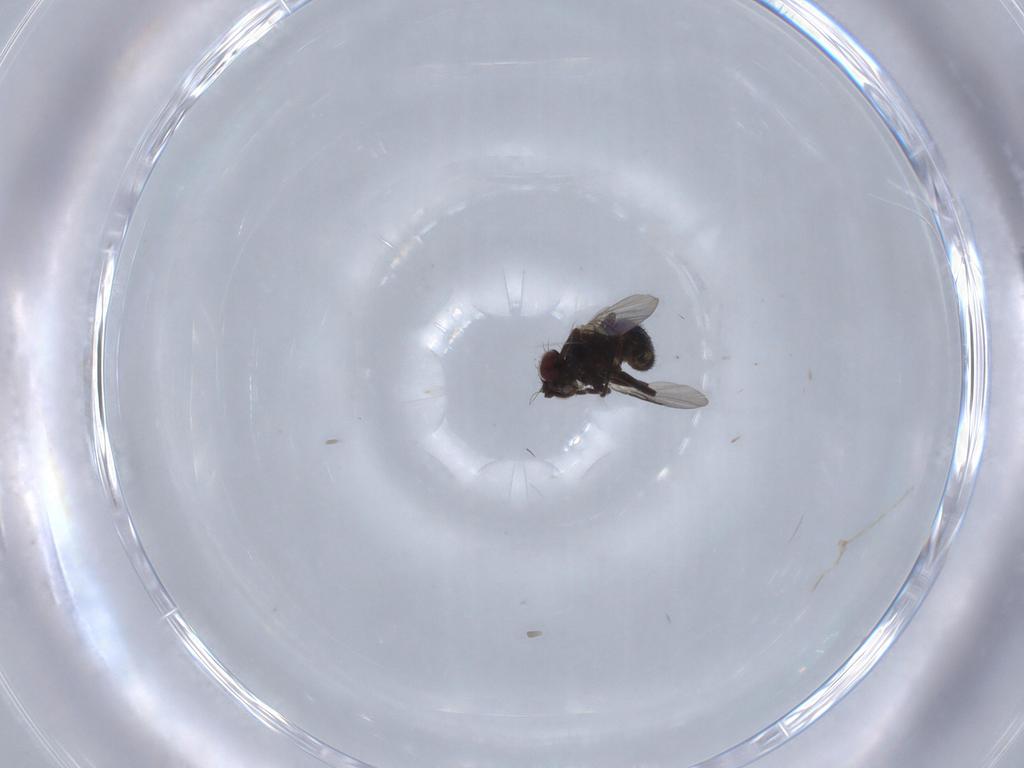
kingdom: Animalia
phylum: Arthropoda
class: Insecta
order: Diptera
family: Hybotidae
